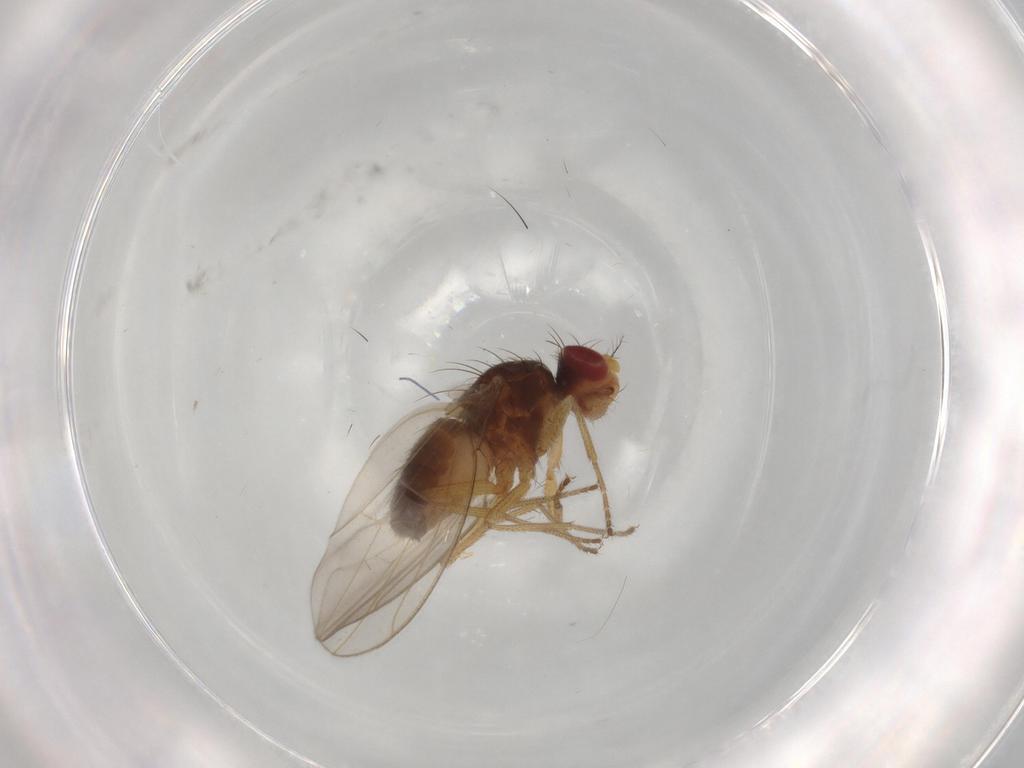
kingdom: Animalia
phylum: Arthropoda
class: Insecta
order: Diptera
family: Drosophilidae
